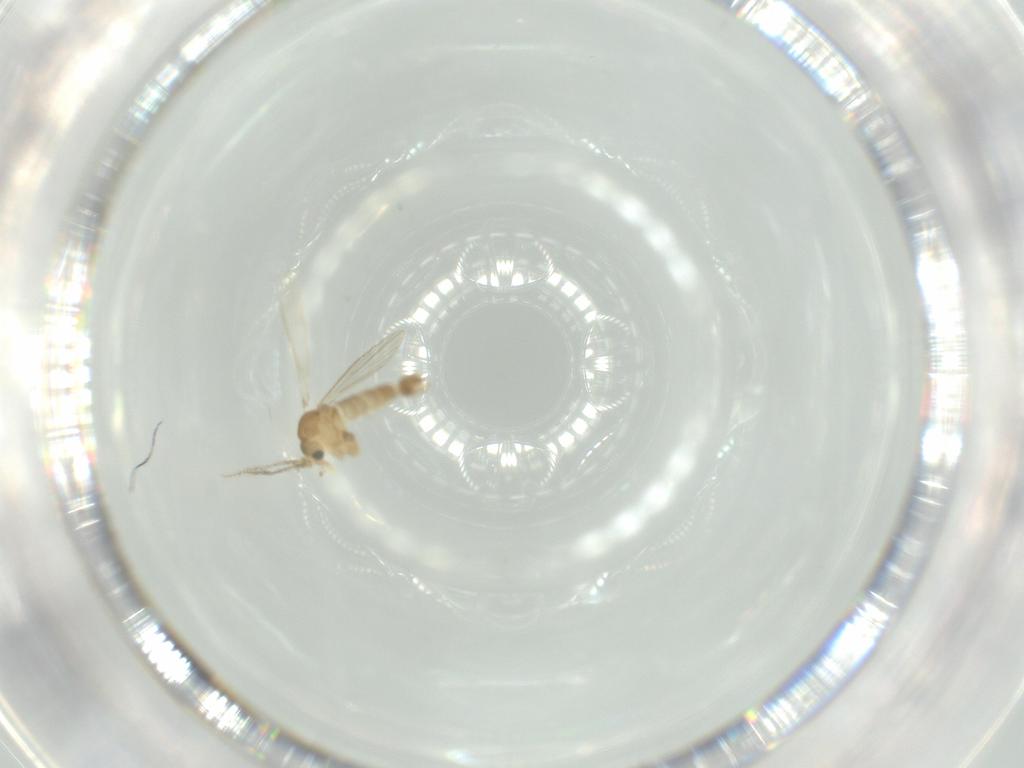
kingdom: Animalia
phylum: Arthropoda
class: Insecta
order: Diptera
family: Psychodidae
